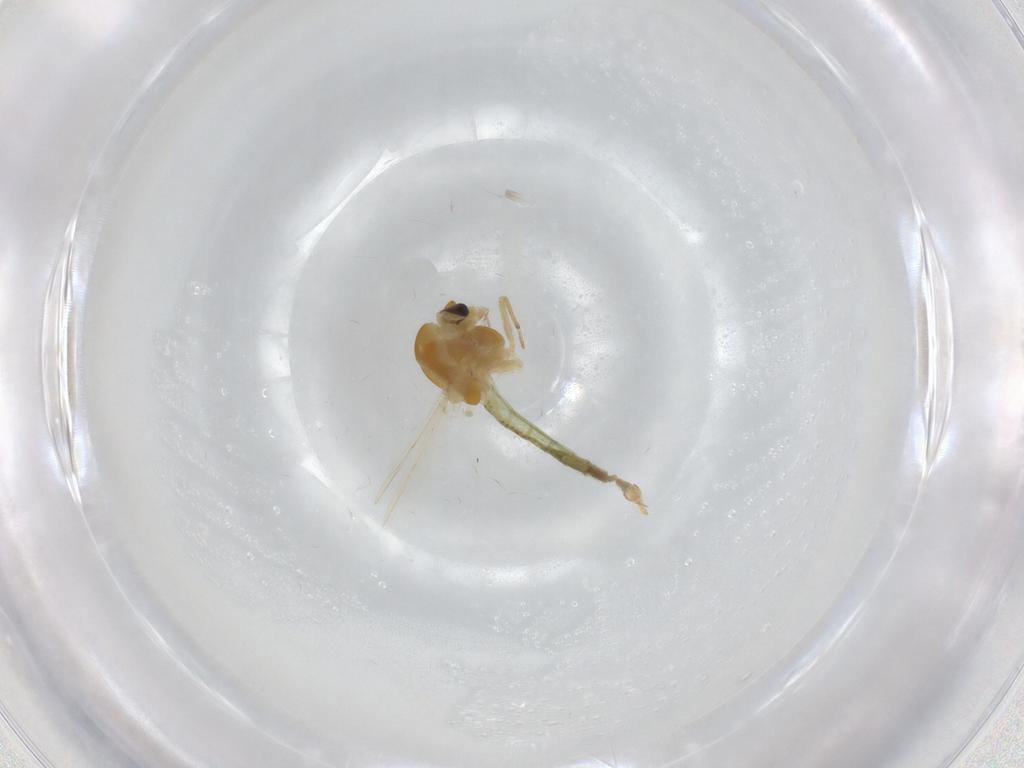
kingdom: Animalia
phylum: Arthropoda
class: Insecta
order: Diptera
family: Chironomidae
